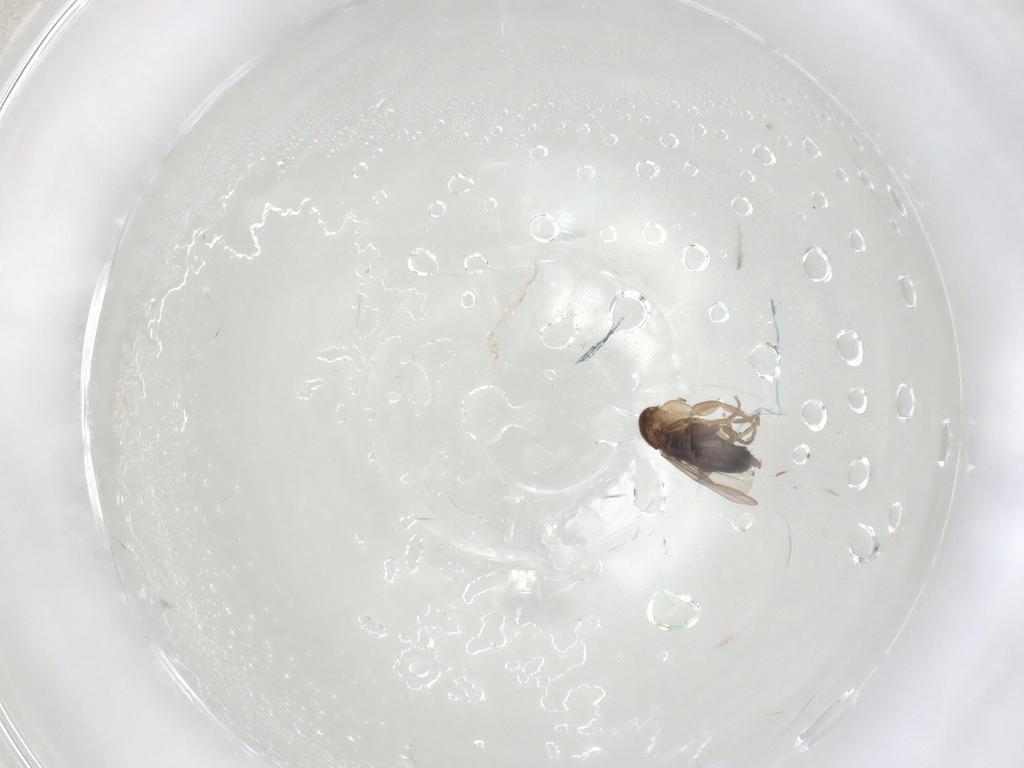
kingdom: Animalia
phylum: Arthropoda
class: Insecta
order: Diptera
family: Phoridae
